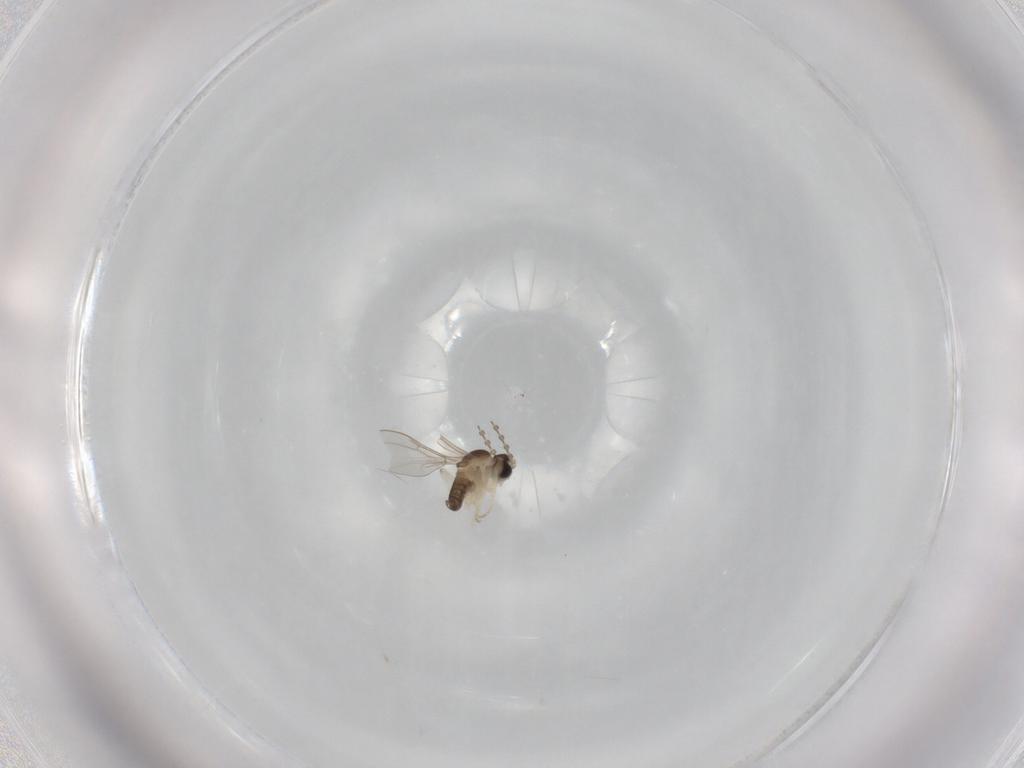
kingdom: Animalia
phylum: Arthropoda
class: Insecta
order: Diptera
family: Cecidomyiidae
